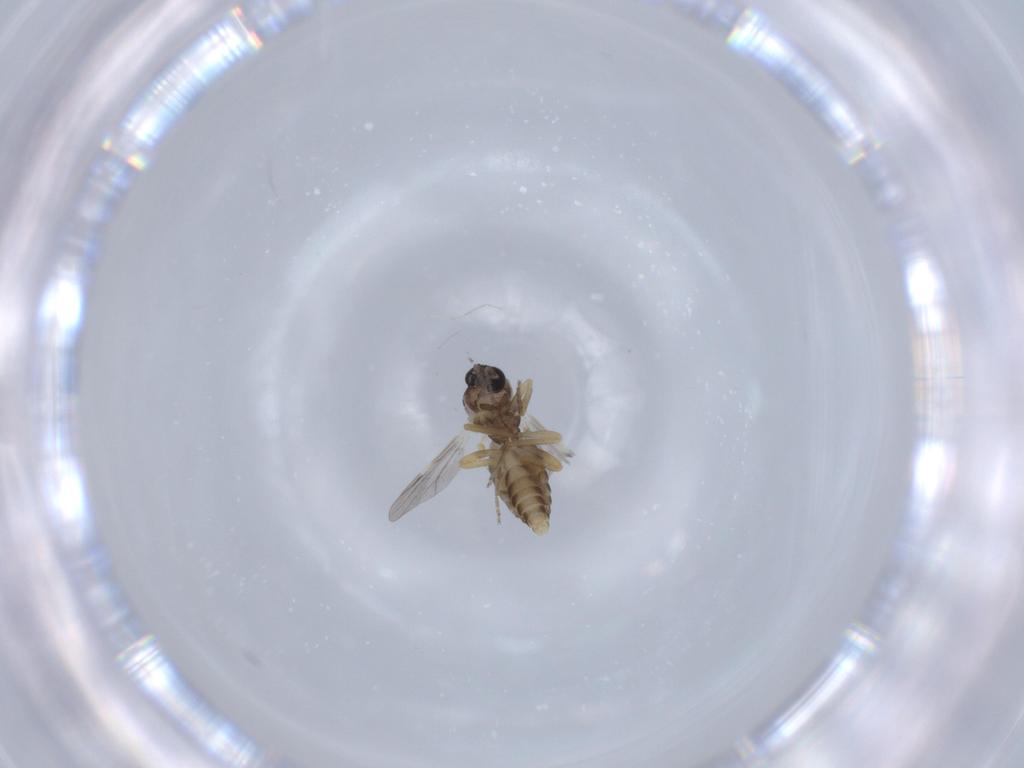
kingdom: Animalia
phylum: Arthropoda
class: Insecta
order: Diptera
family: Ceratopogonidae
